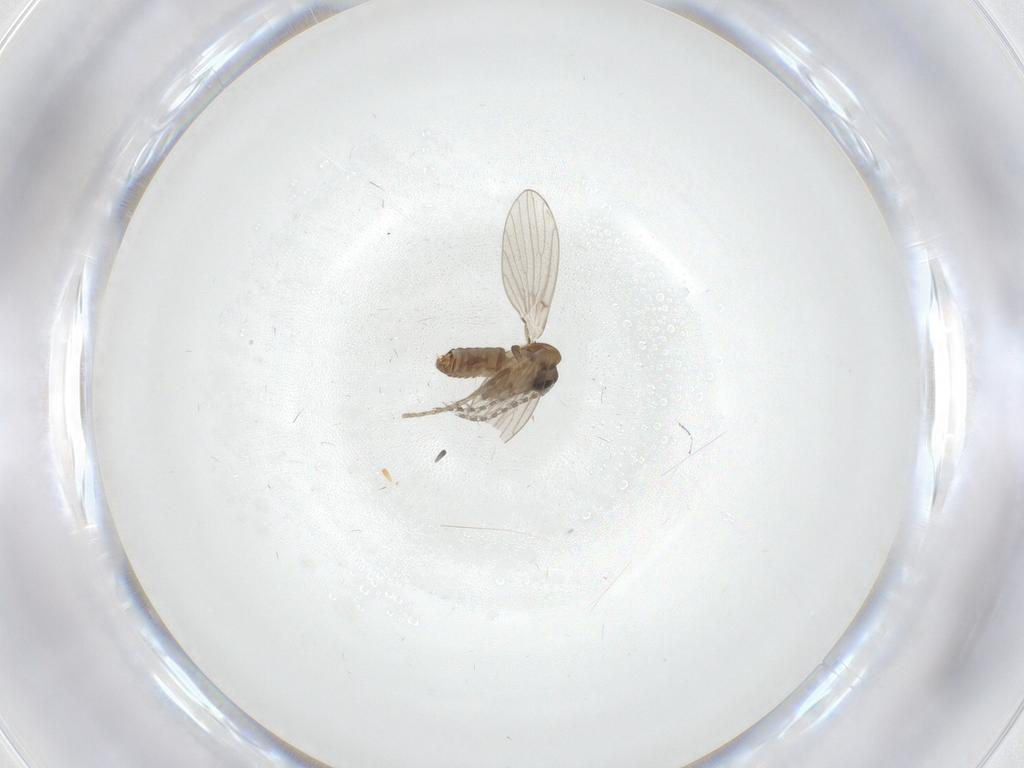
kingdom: Animalia
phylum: Arthropoda
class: Insecta
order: Diptera
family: Psychodidae
